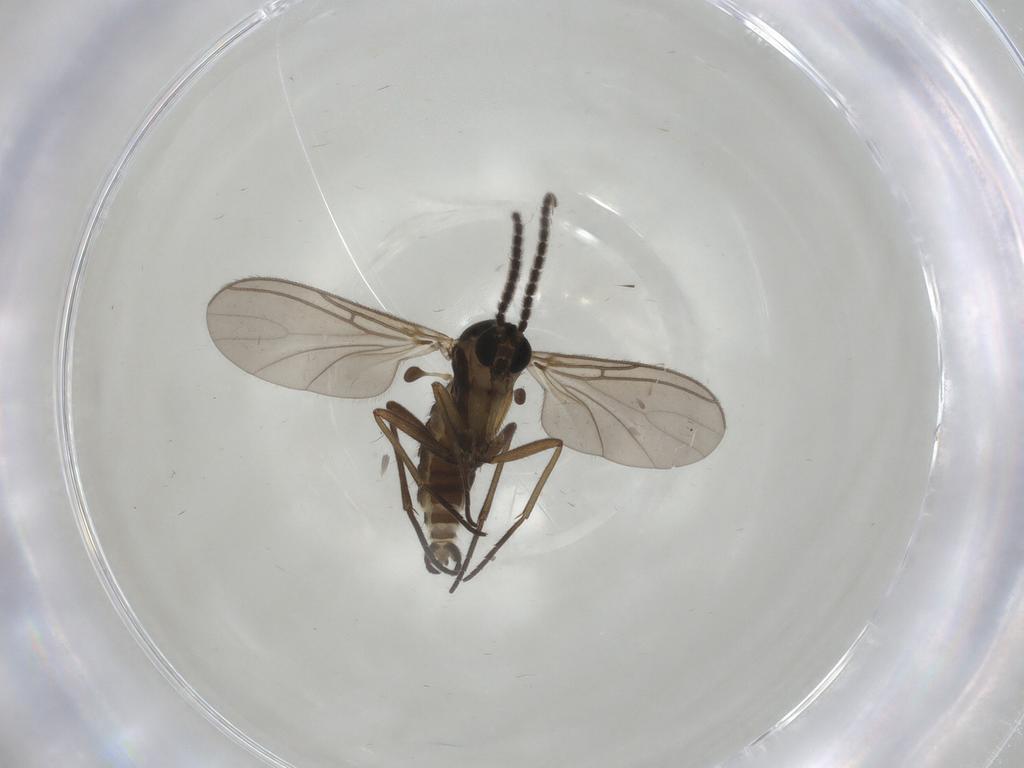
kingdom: Animalia
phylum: Arthropoda
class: Insecta
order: Diptera
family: Sciaridae
